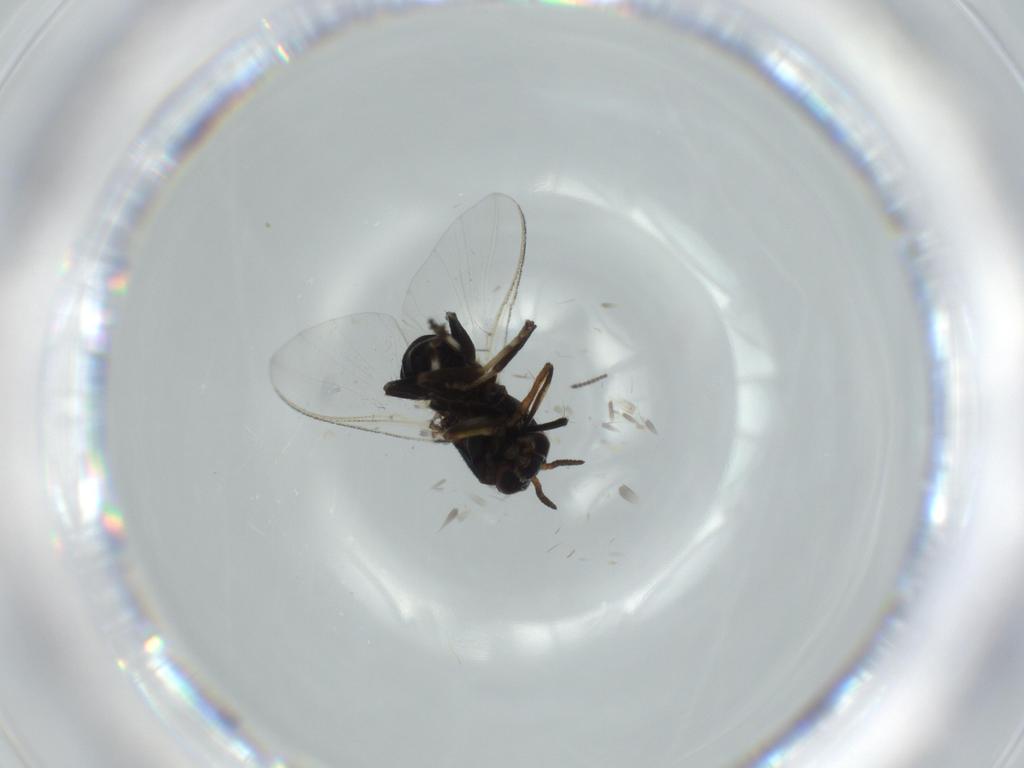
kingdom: Animalia
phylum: Arthropoda
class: Insecta
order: Diptera
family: Simuliidae
